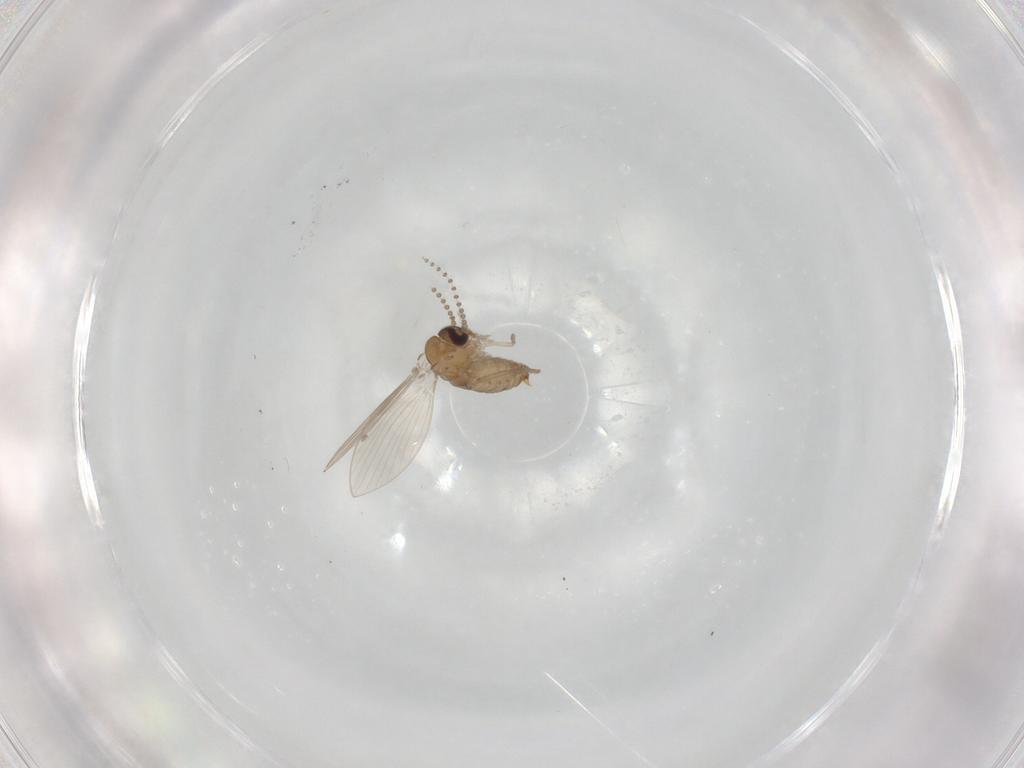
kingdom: Animalia
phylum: Arthropoda
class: Insecta
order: Diptera
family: Psychodidae
